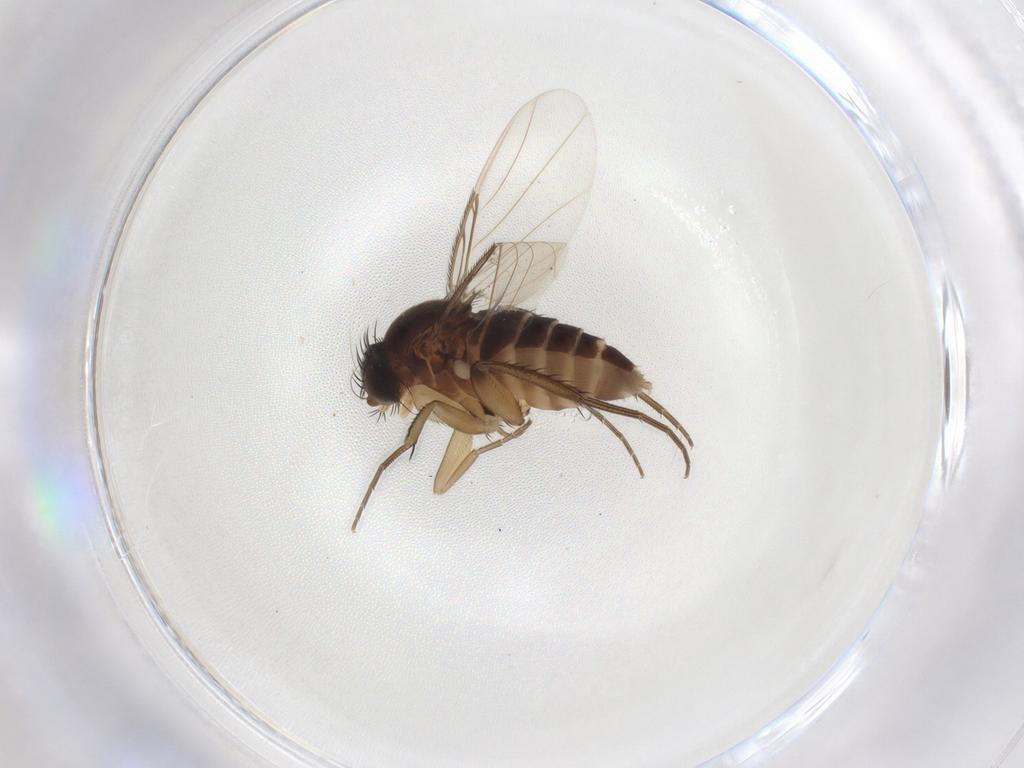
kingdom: Animalia
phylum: Arthropoda
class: Insecta
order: Diptera
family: Phoridae
